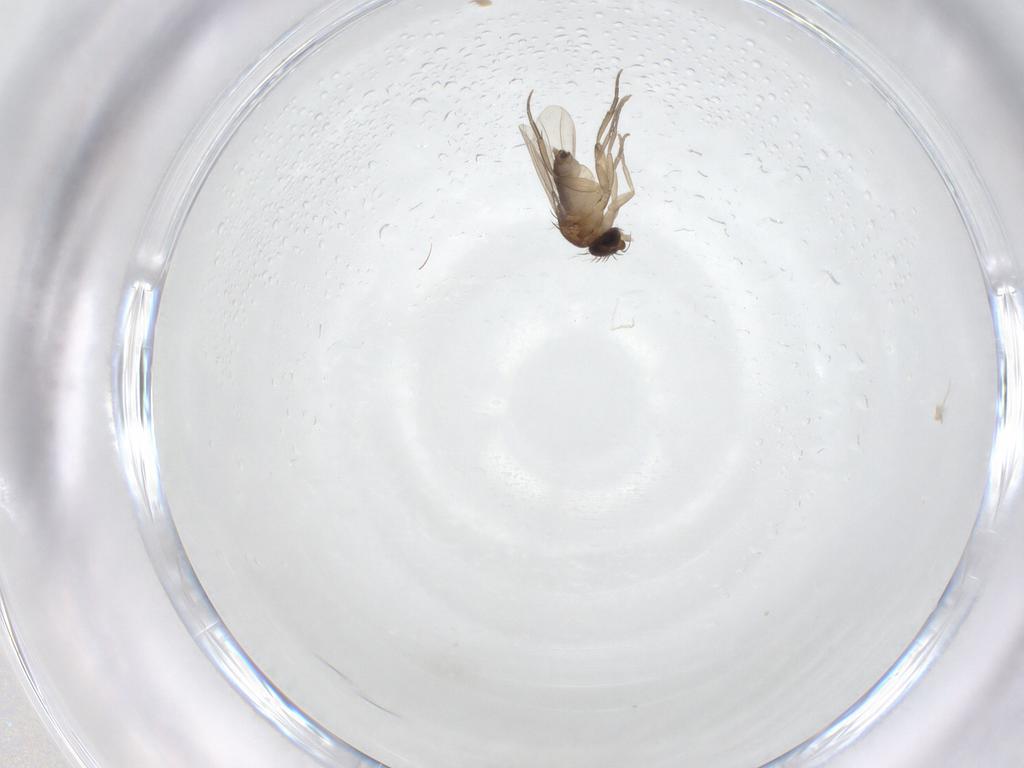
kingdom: Animalia
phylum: Arthropoda
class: Insecta
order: Diptera
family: Phoridae
